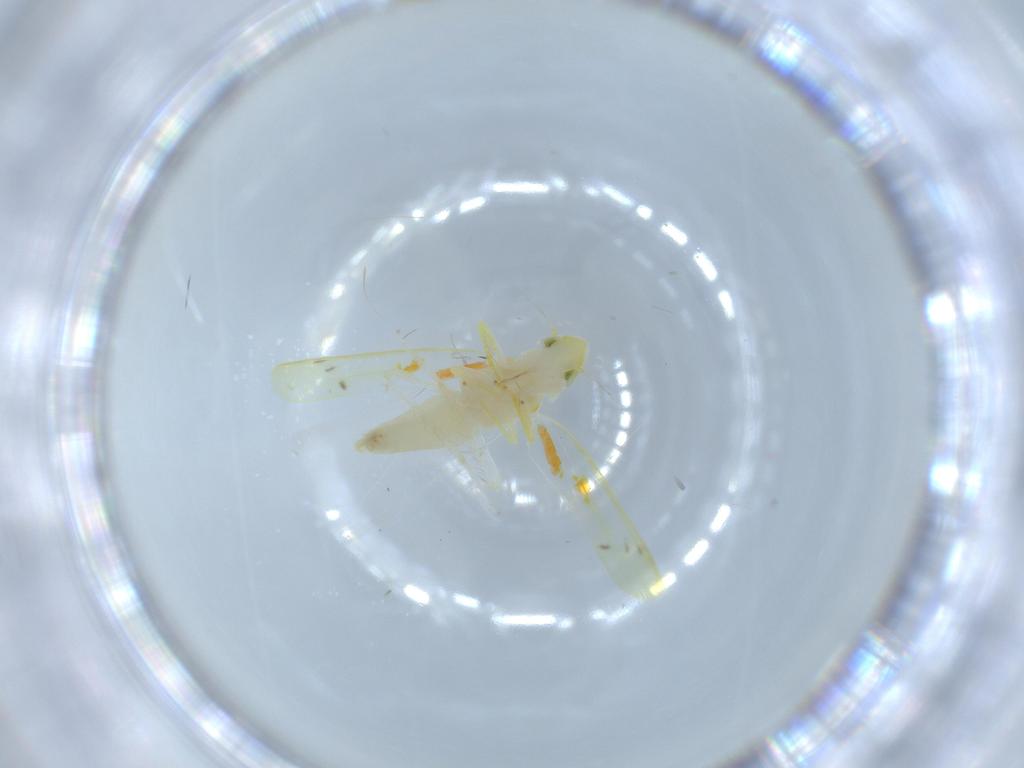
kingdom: Animalia
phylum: Arthropoda
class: Insecta
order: Hemiptera
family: Cicadellidae
